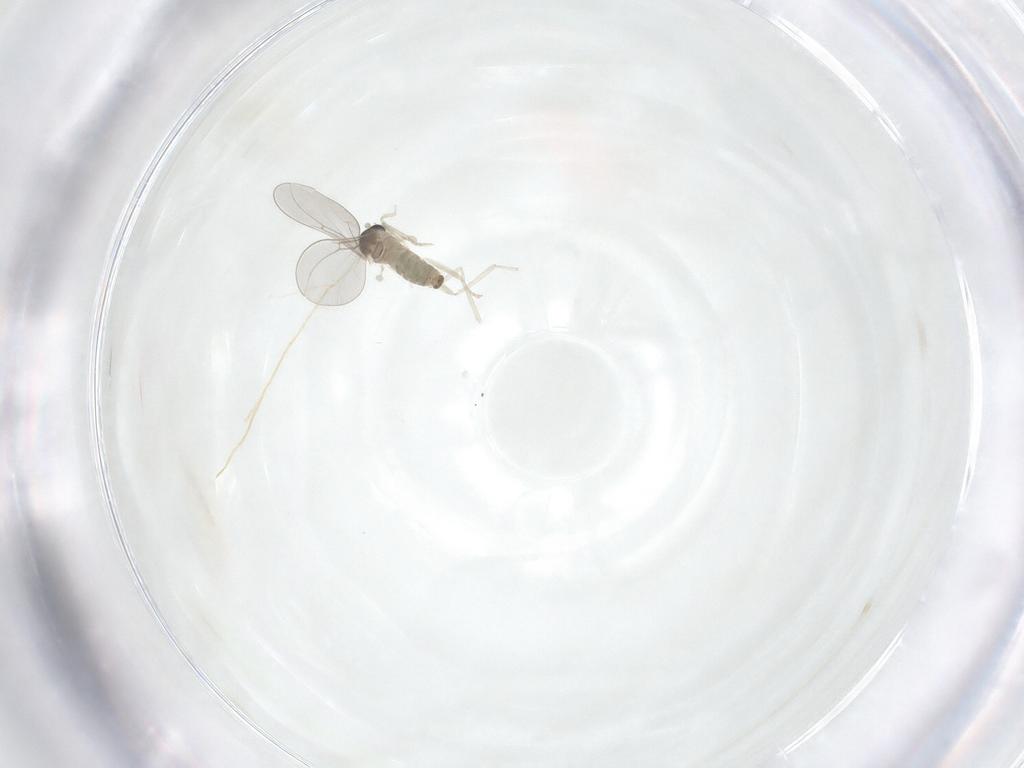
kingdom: Animalia
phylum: Arthropoda
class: Insecta
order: Diptera
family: Cecidomyiidae
